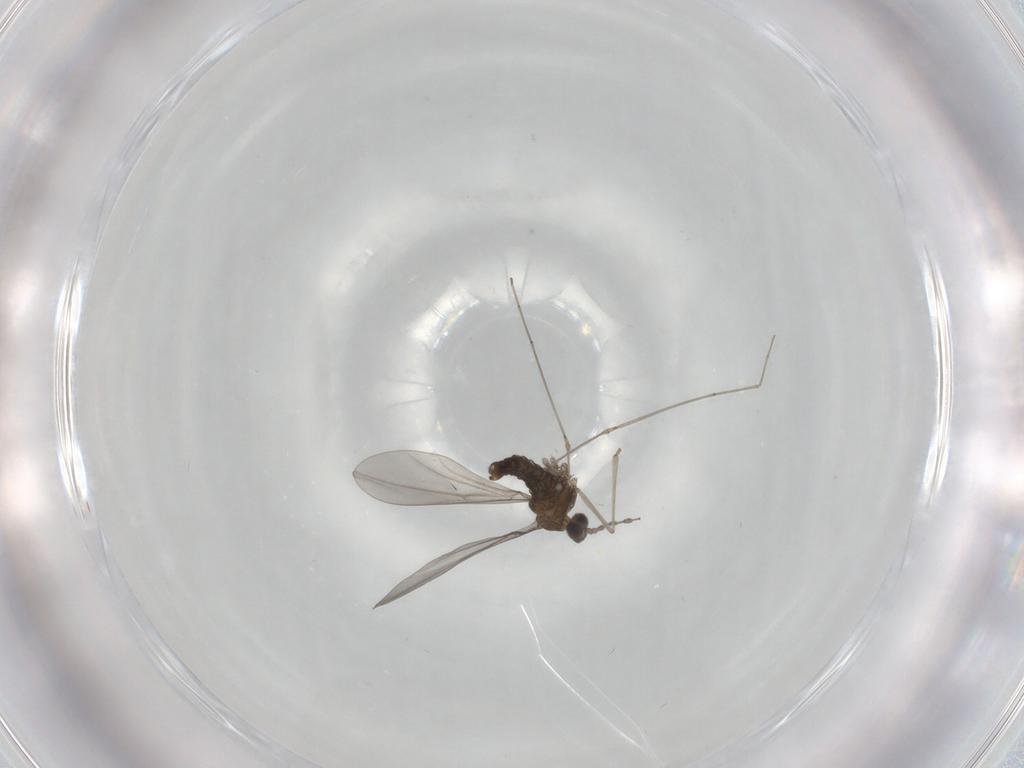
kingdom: Animalia
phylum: Arthropoda
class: Insecta
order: Diptera
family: Cecidomyiidae
